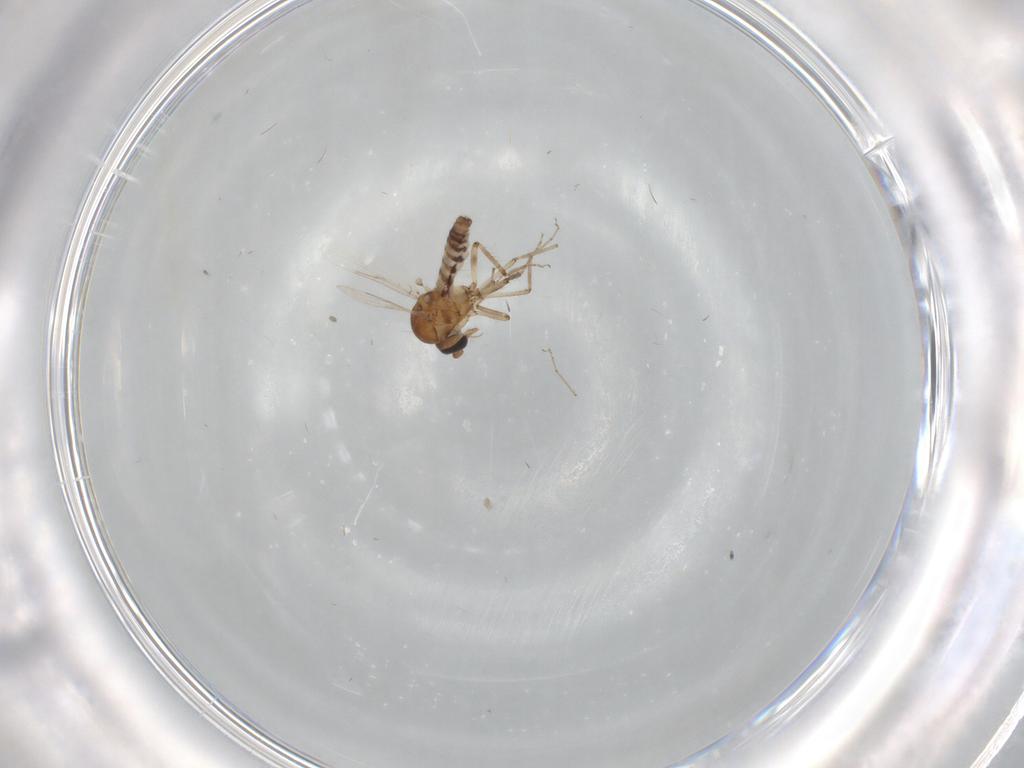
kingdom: Animalia
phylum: Arthropoda
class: Insecta
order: Diptera
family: Ceratopogonidae
